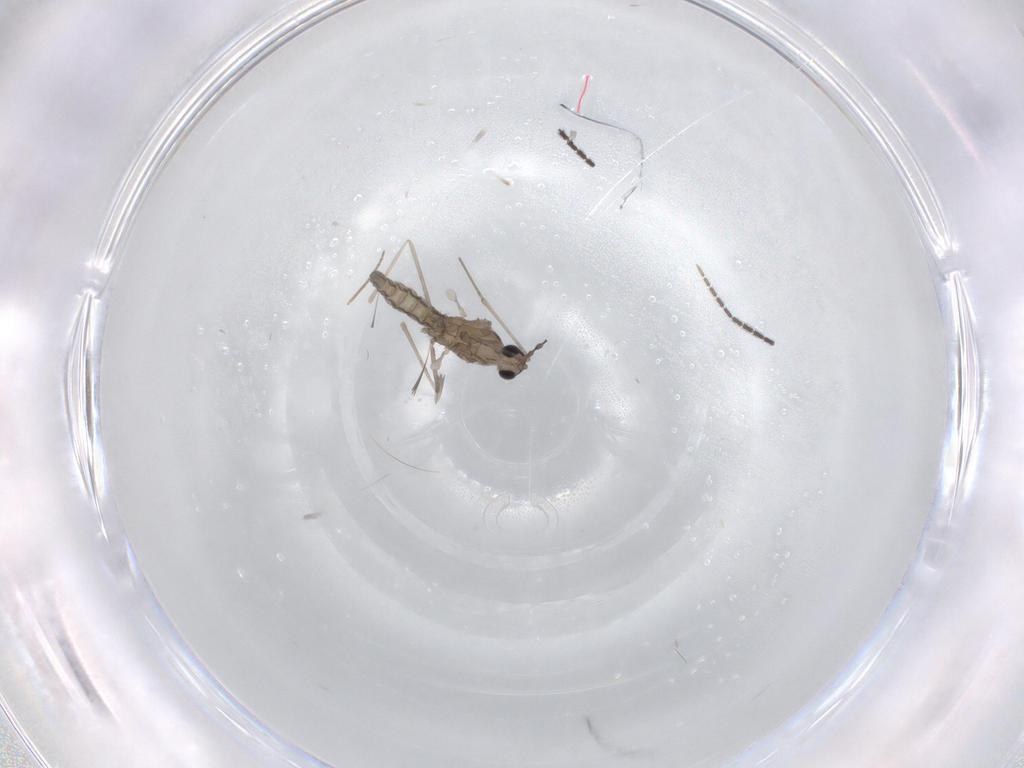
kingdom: Animalia
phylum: Arthropoda
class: Insecta
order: Diptera
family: Cecidomyiidae
